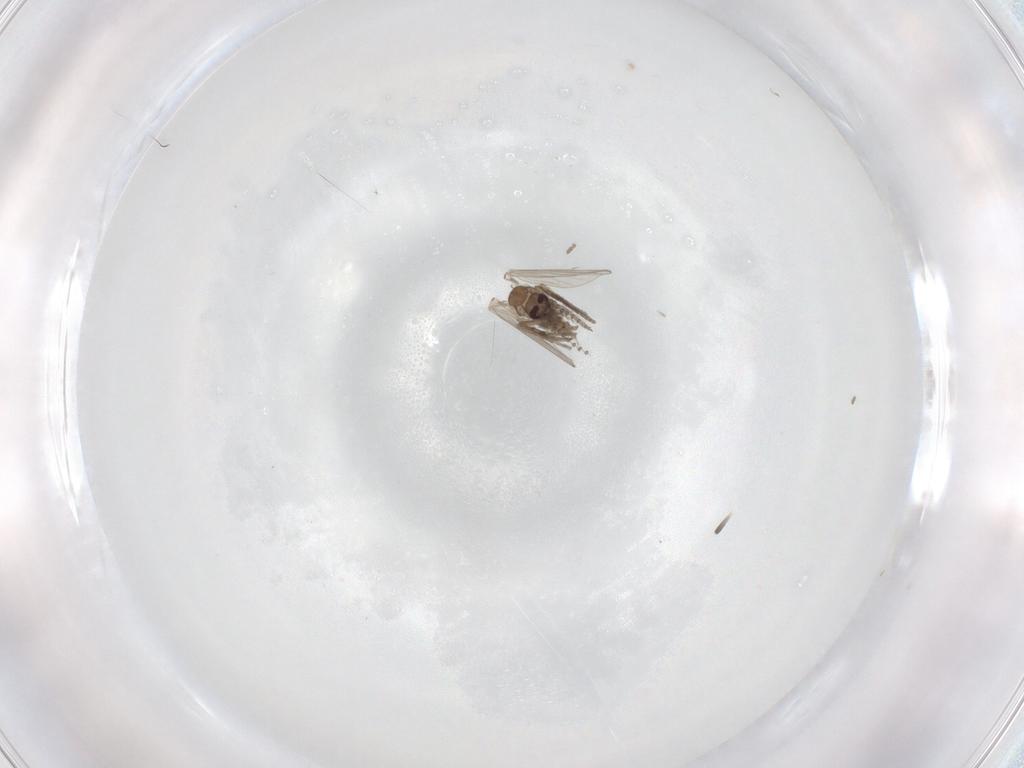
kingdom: Animalia
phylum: Arthropoda
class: Insecta
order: Diptera
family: Psychodidae
